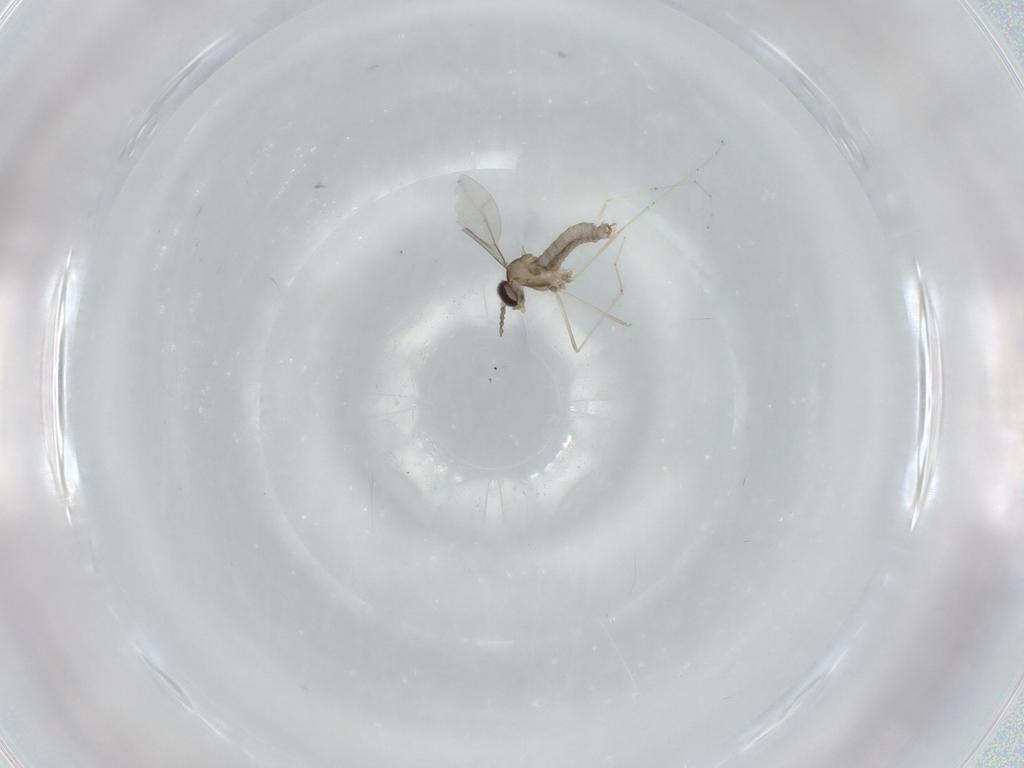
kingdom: Animalia
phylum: Arthropoda
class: Insecta
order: Diptera
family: Cecidomyiidae
